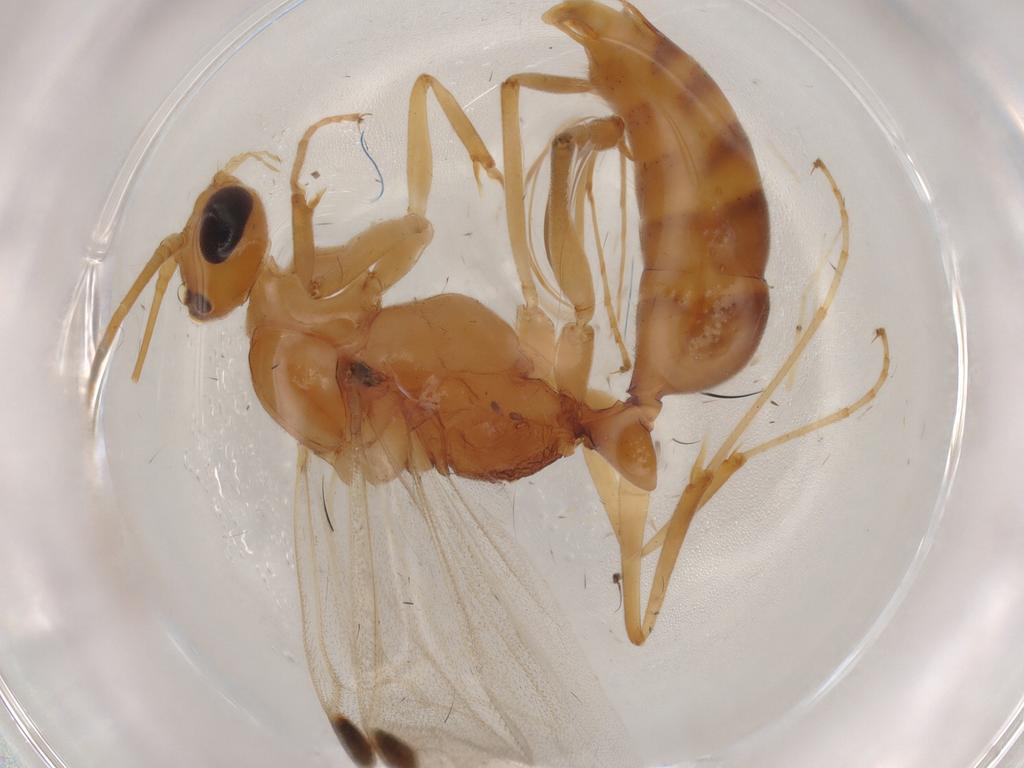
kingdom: Animalia
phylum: Arthropoda
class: Insecta
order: Hymenoptera
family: Formicidae
